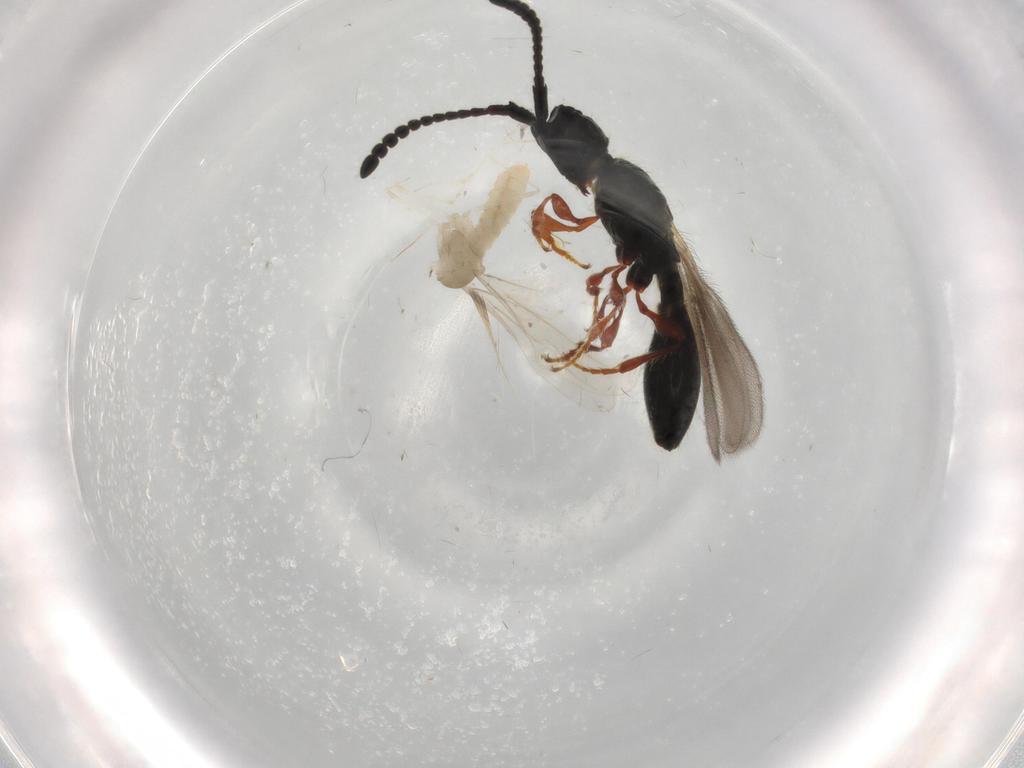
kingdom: Animalia
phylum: Arthropoda
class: Insecta
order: Diptera
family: Cecidomyiidae
